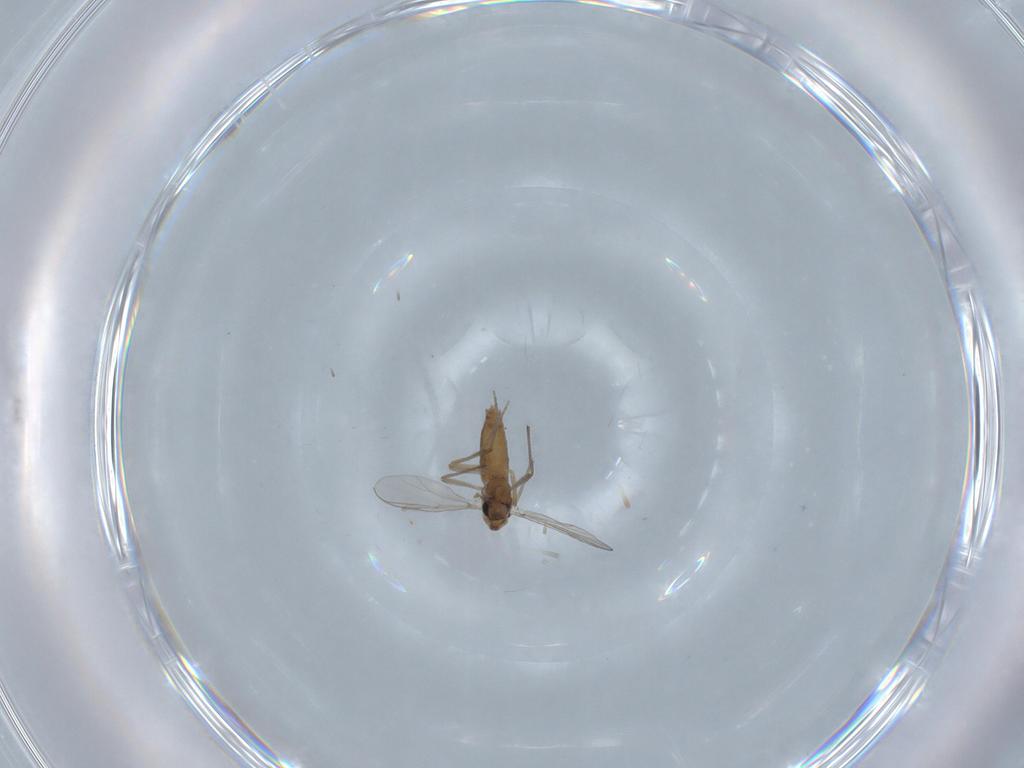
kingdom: Animalia
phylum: Arthropoda
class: Insecta
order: Diptera
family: Chironomidae
